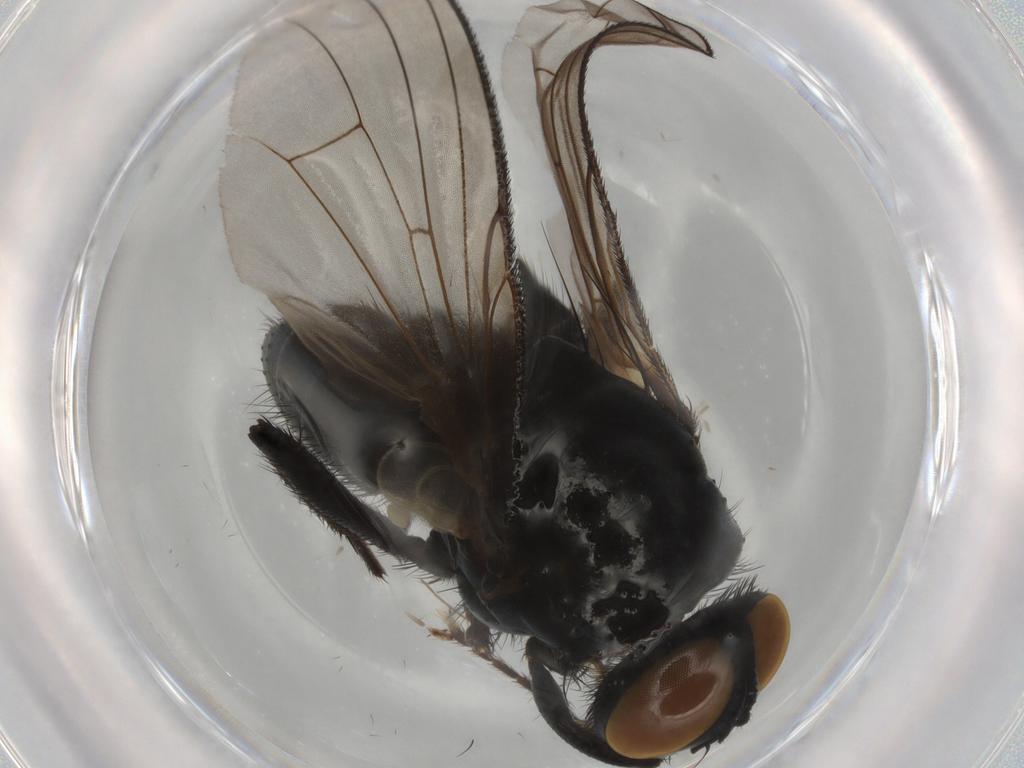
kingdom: Animalia
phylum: Arthropoda
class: Insecta
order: Diptera
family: Muscidae
